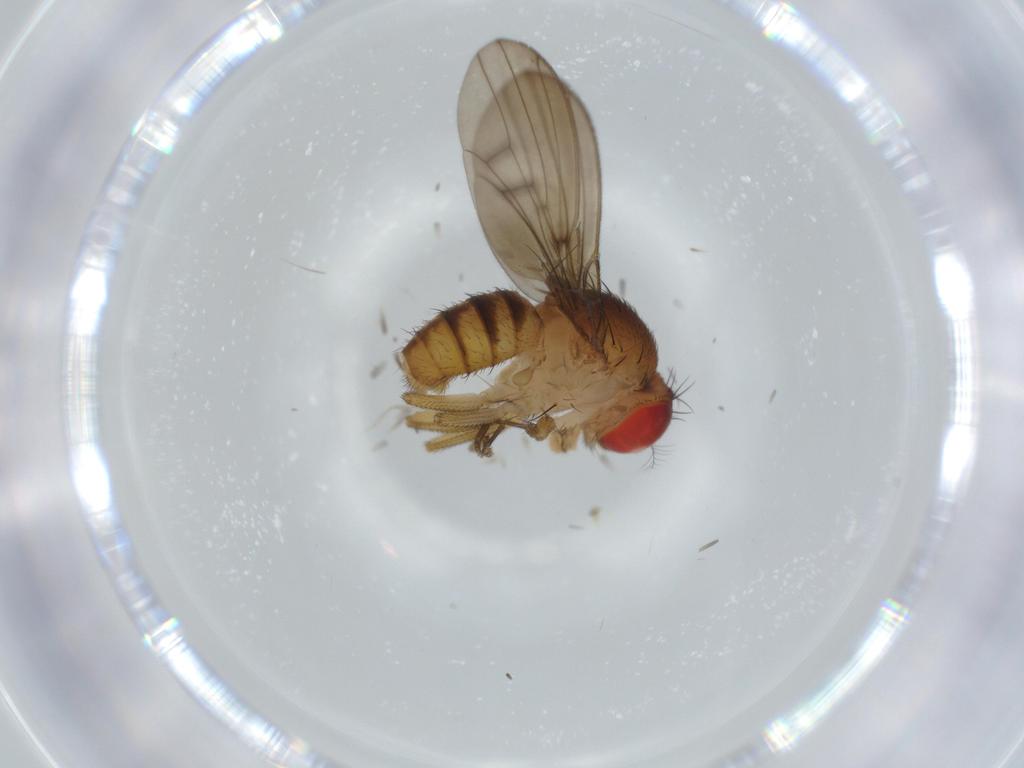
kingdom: Animalia
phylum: Arthropoda
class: Insecta
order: Diptera
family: Drosophilidae
